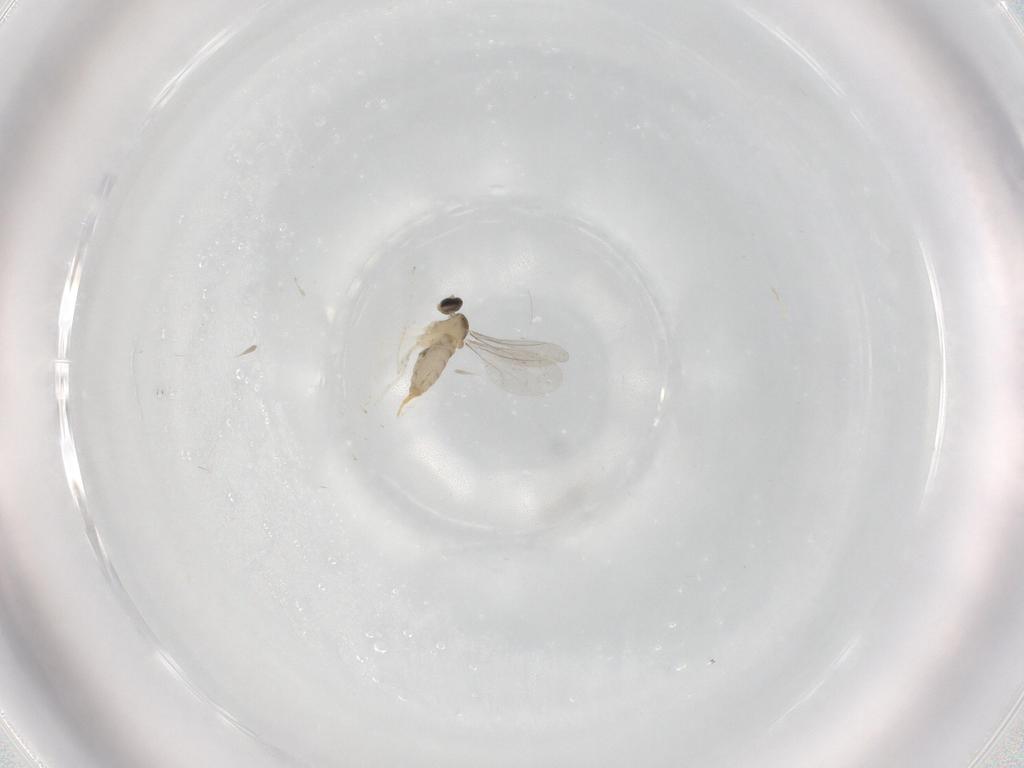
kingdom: Animalia
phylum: Arthropoda
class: Insecta
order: Diptera
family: Cecidomyiidae
